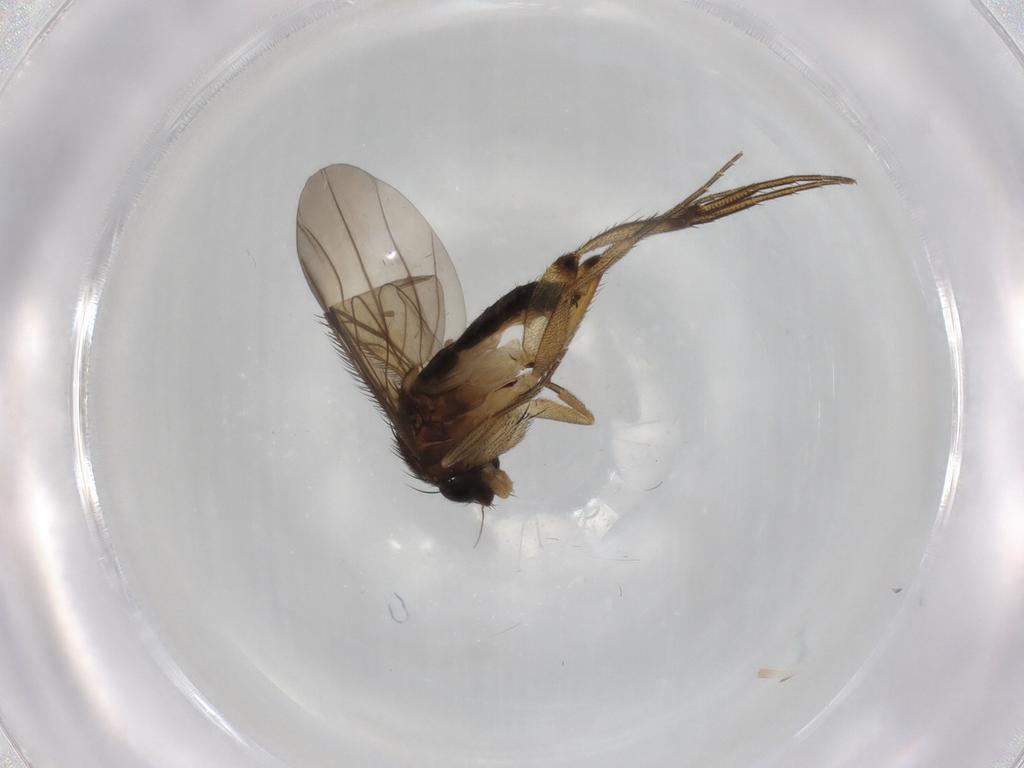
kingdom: Animalia
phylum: Arthropoda
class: Insecta
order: Diptera
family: Phoridae
